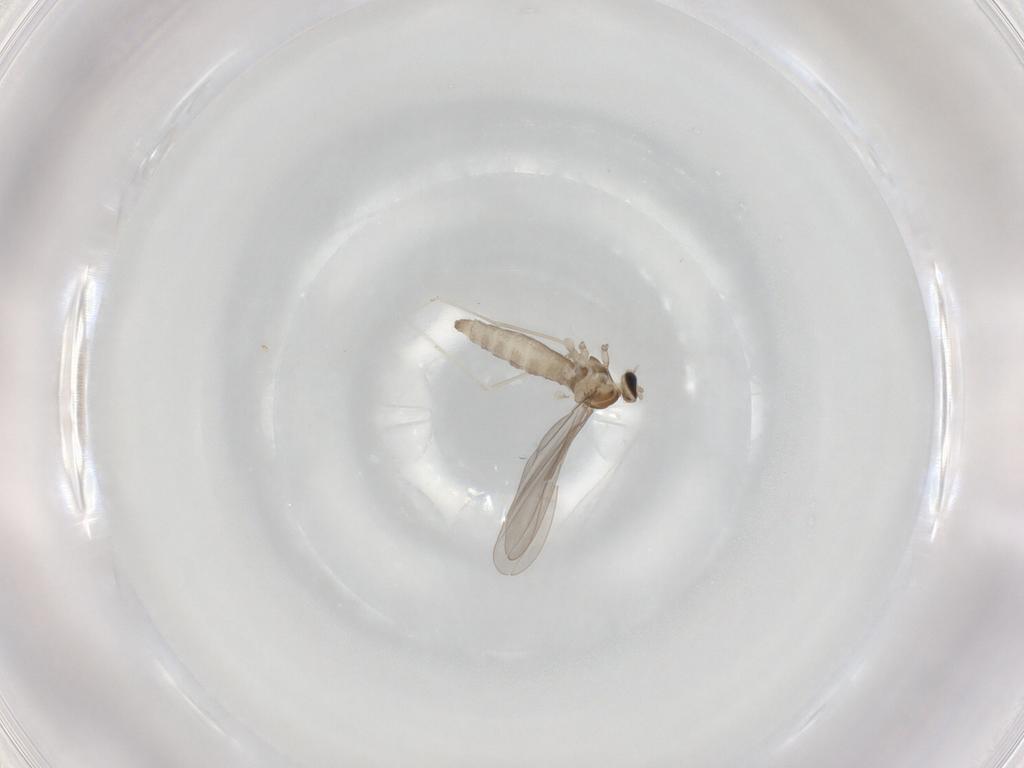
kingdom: Animalia
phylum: Arthropoda
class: Insecta
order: Diptera
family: Cecidomyiidae
